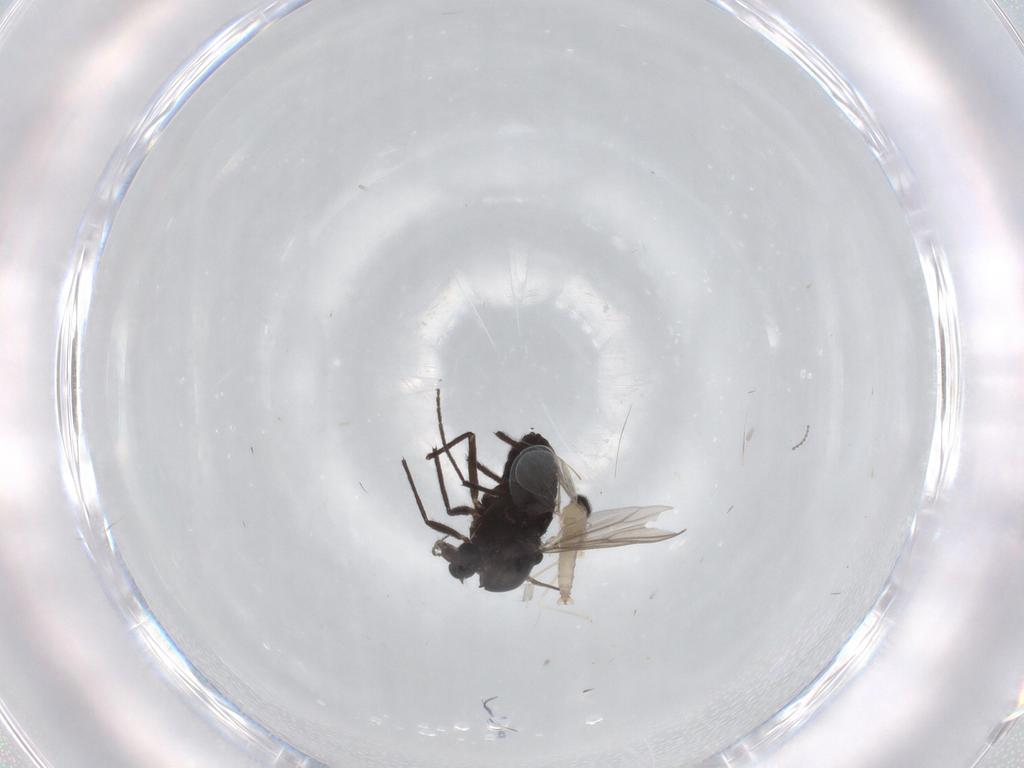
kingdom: Animalia
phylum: Arthropoda
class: Insecta
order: Diptera
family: Chironomidae
